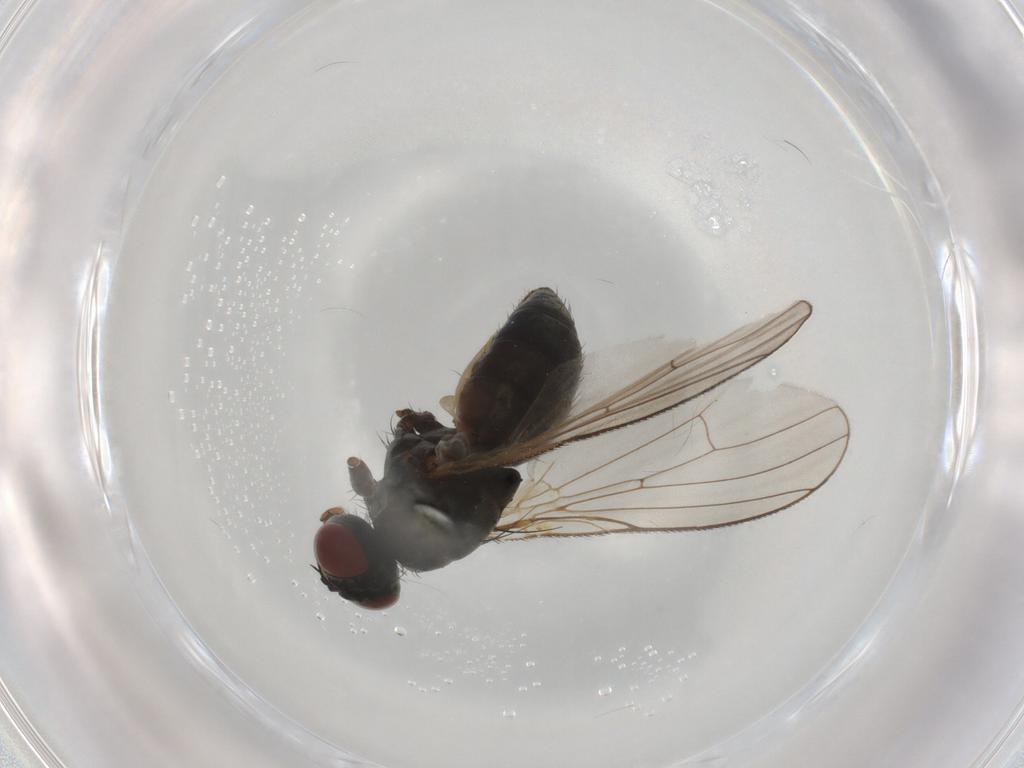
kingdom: Animalia
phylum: Arthropoda
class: Insecta
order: Diptera
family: Muscidae
